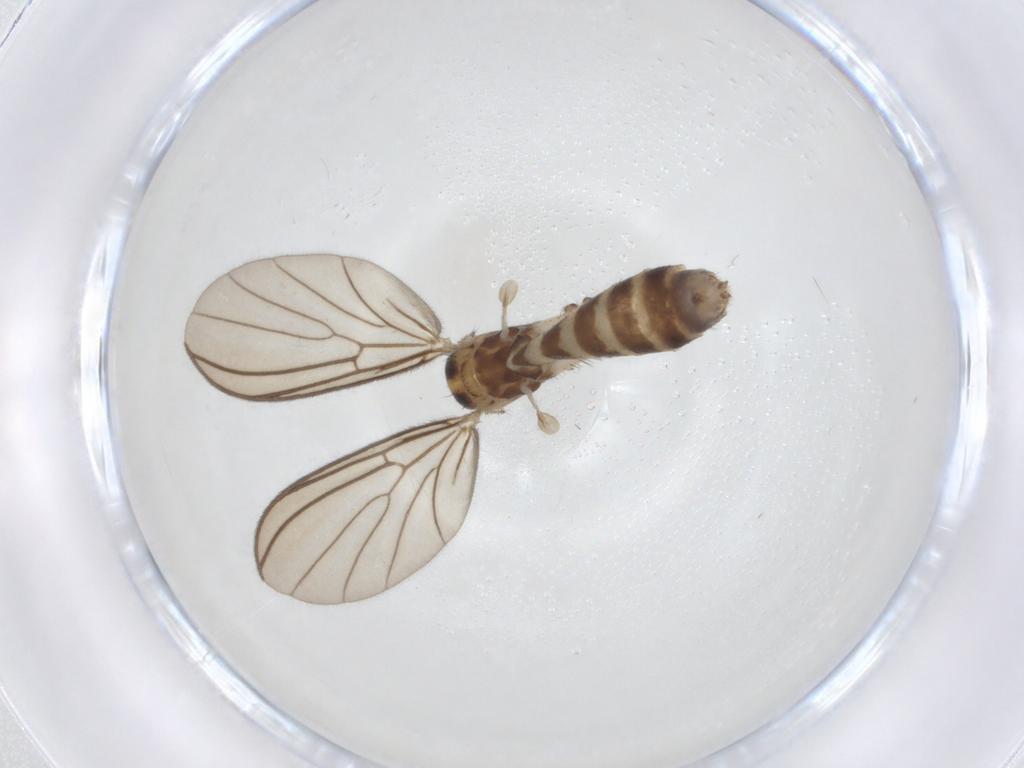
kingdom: Animalia
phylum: Arthropoda
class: Insecta
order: Diptera
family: Mycetophilidae
